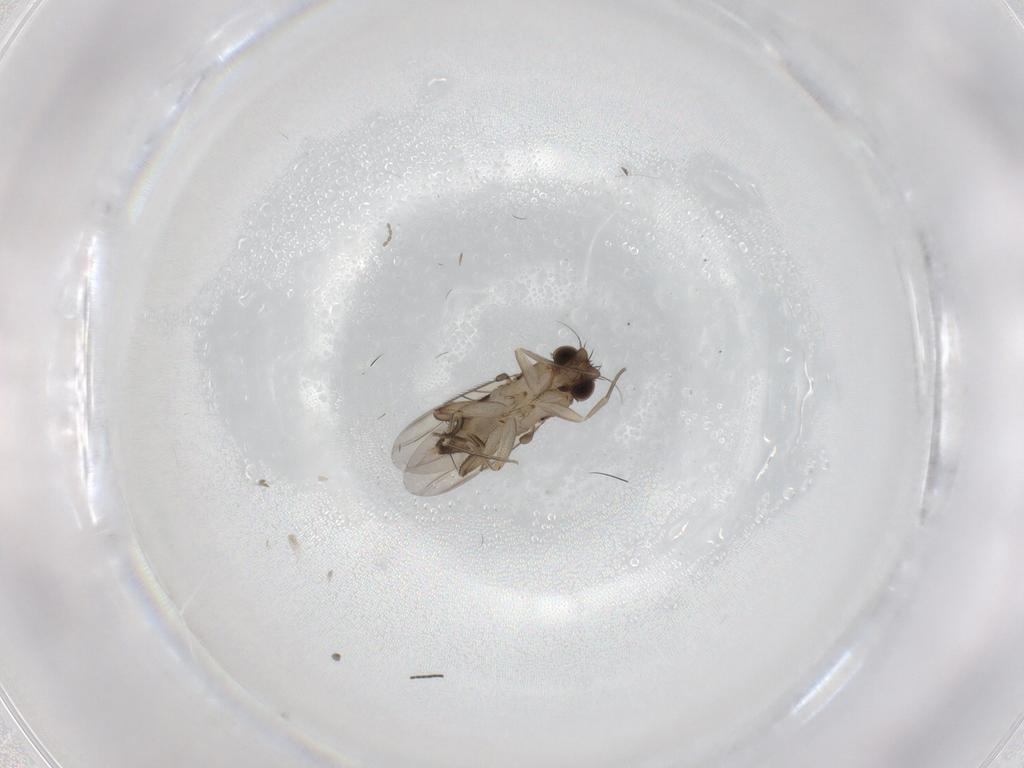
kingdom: Animalia
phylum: Arthropoda
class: Insecta
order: Diptera
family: Phoridae
